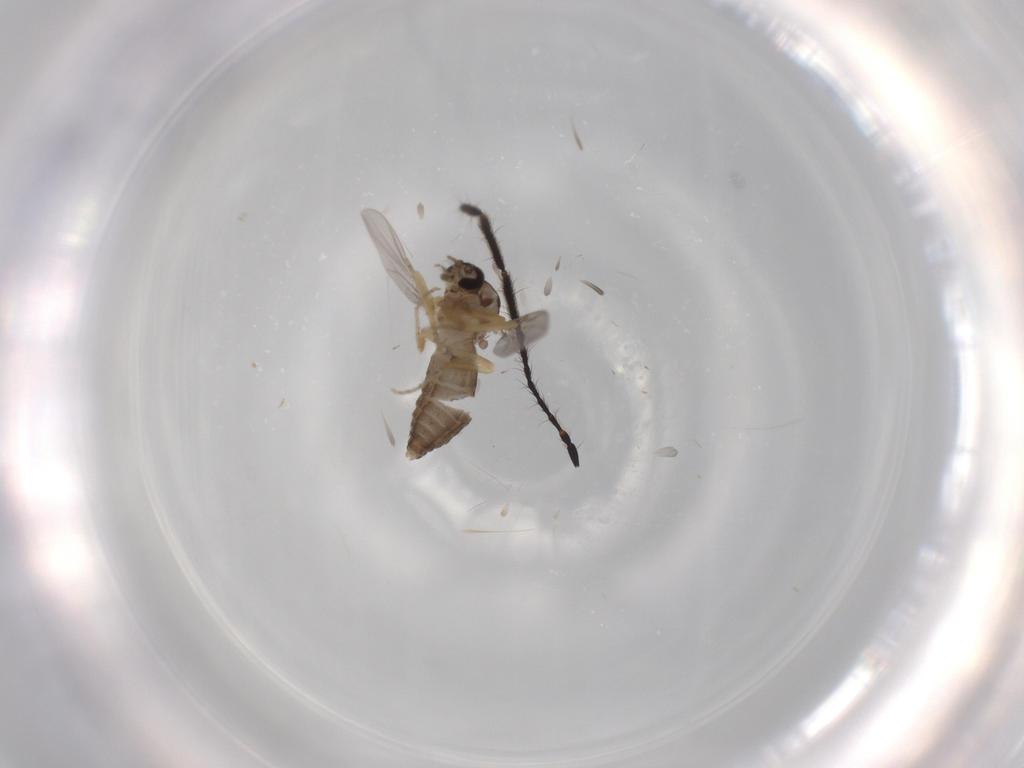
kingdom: Animalia
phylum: Arthropoda
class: Insecta
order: Diptera
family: Ceratopogonidae
